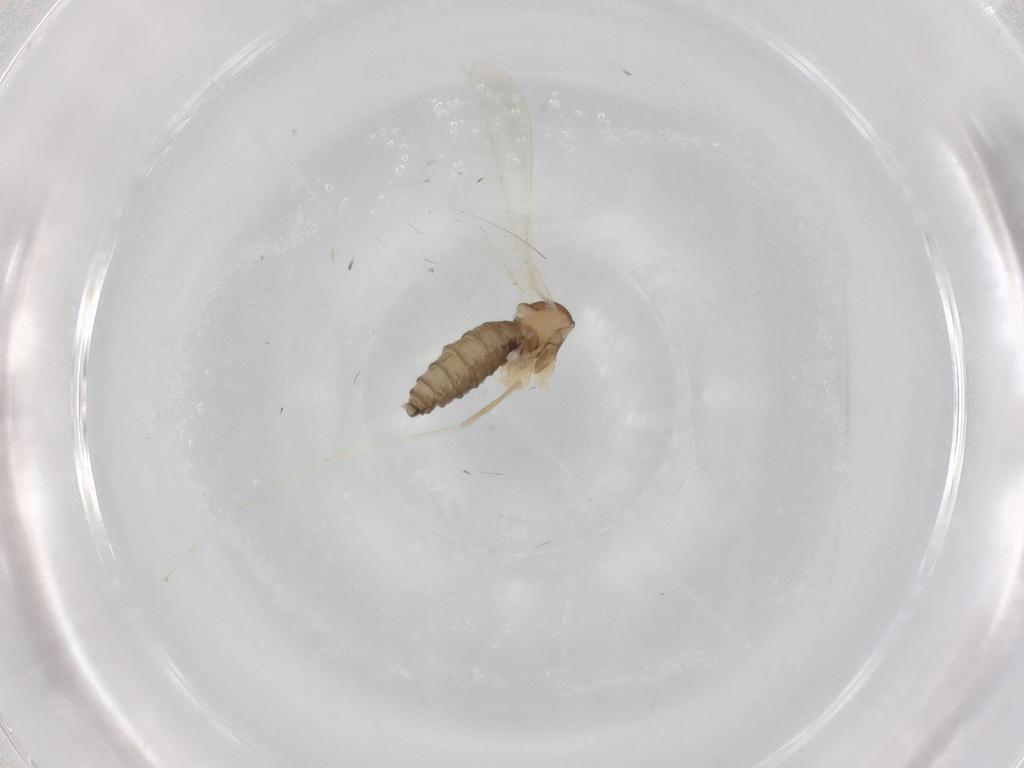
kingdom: Animalia
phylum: Arthropoda
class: Insecta
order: Diptera
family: Cecidomyiidae
